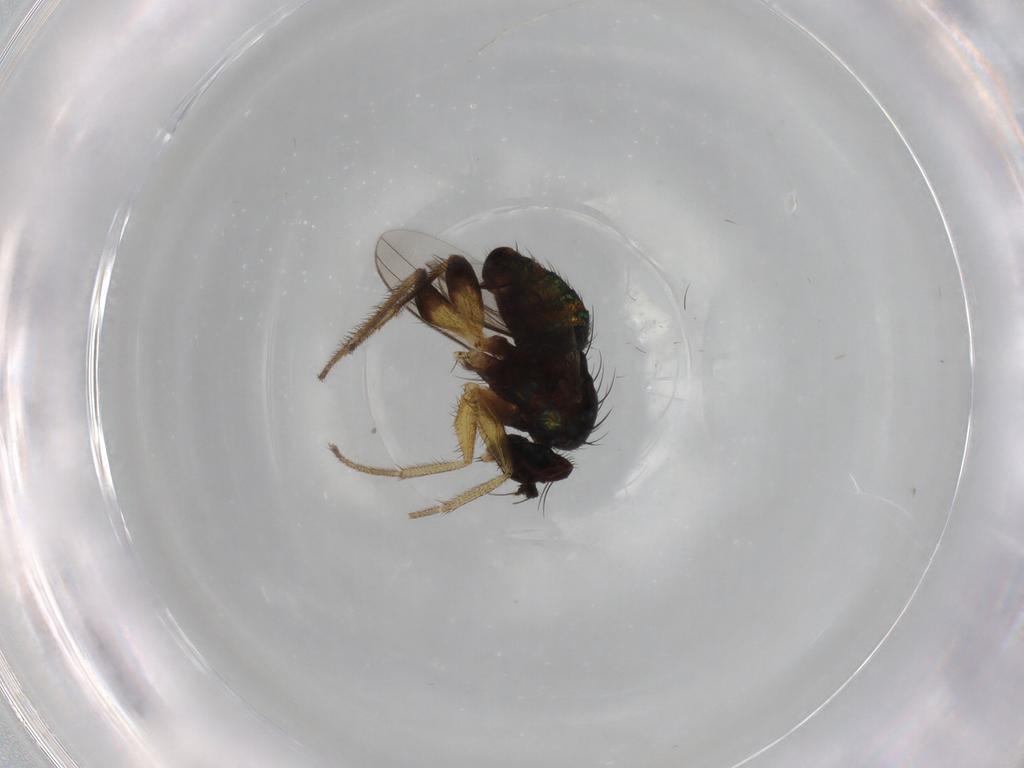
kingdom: Animalia
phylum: Arthropoda
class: Insecta
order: Diptera
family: Dolichopodidae
